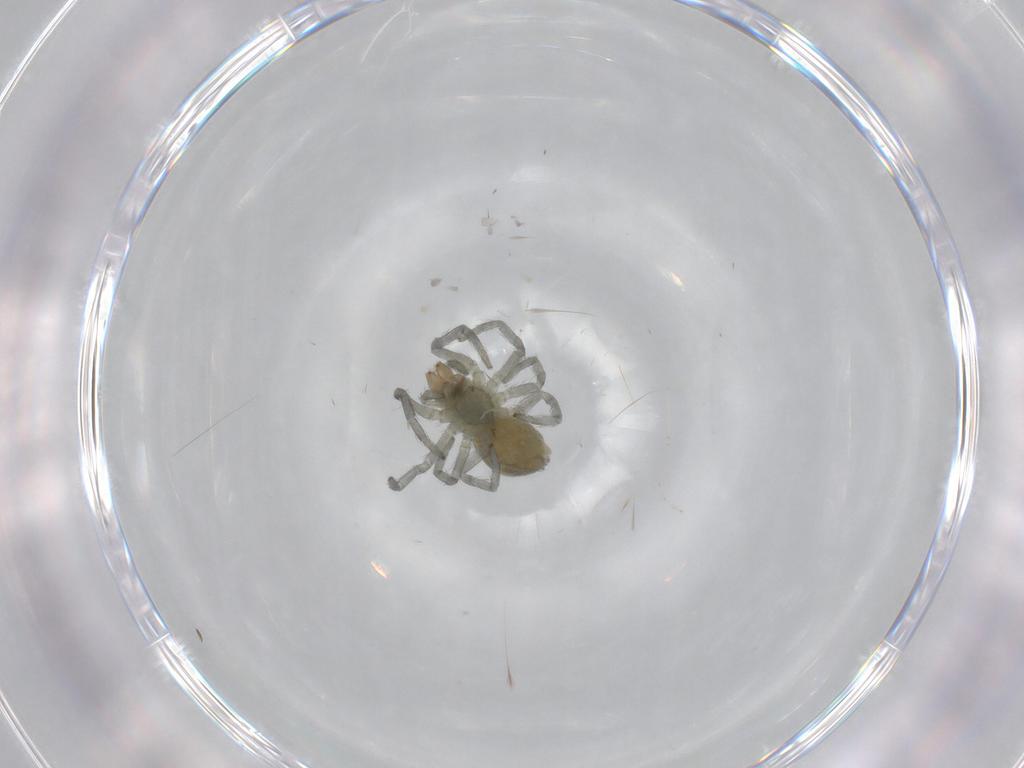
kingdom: Animalia
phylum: Arthropoda
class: Arachnida
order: Araneae
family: Dictynidae
